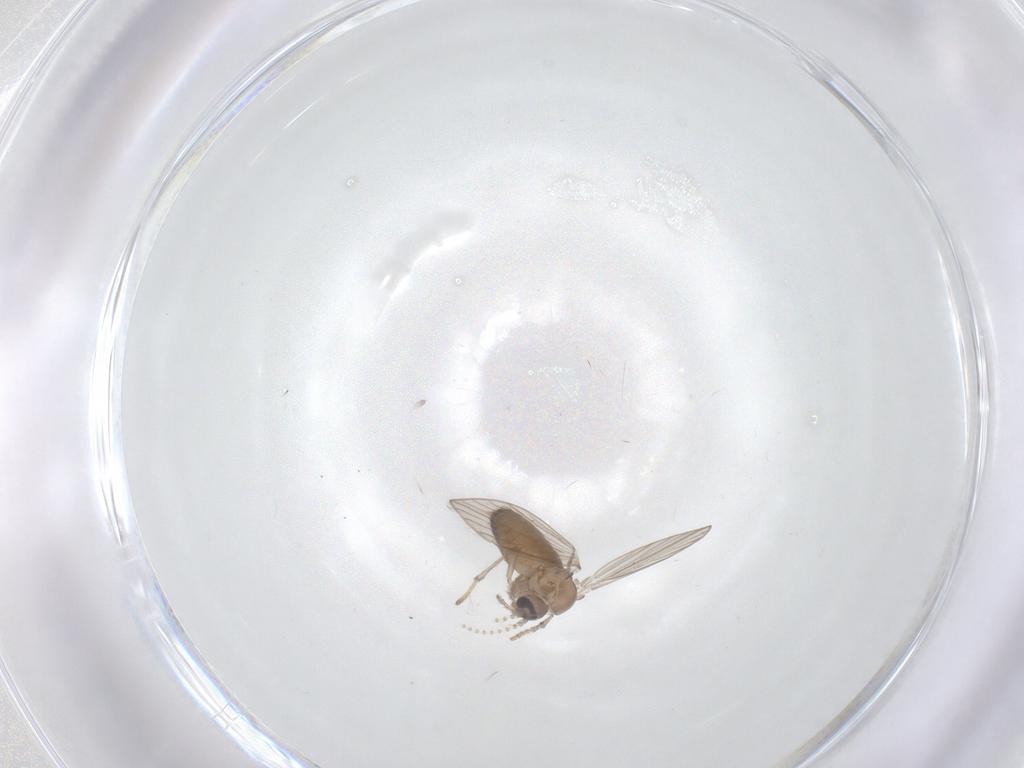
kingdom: Animalia
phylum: Arthropoda
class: Insecta
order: Diptera
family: Psychodidae
